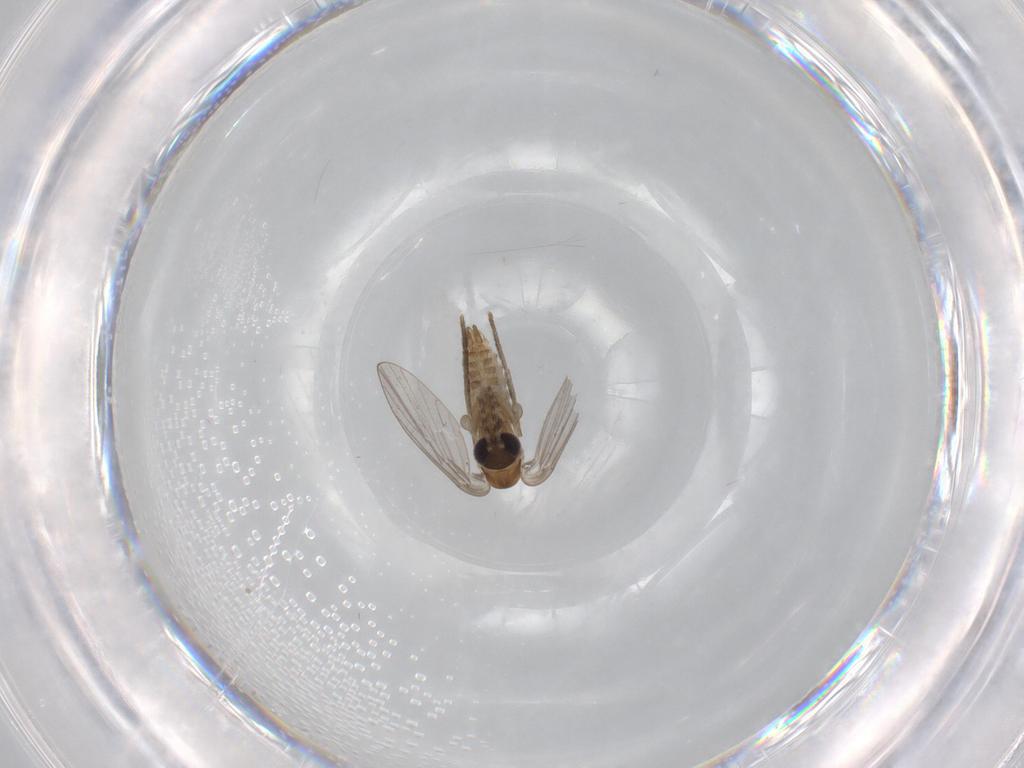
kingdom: Animalia
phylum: Arthropoda
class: Insecta
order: Diptera
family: Psychodidae
